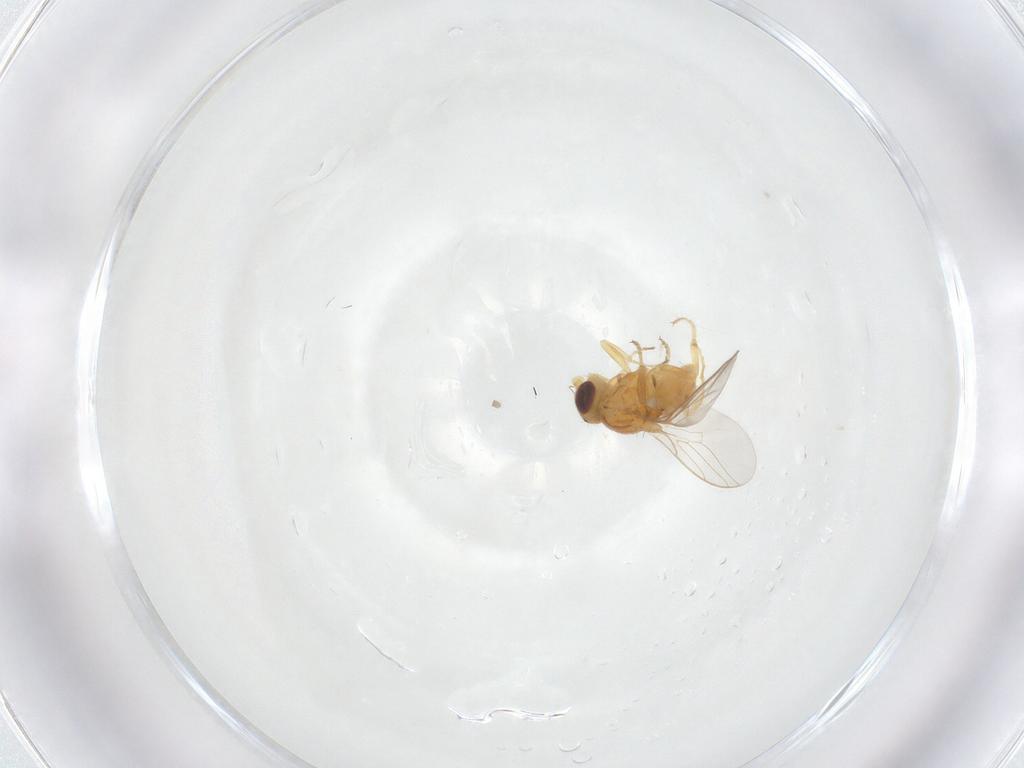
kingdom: Animalia
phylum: Arthropoda
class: Insecta
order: Diptera
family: Chloropidae
